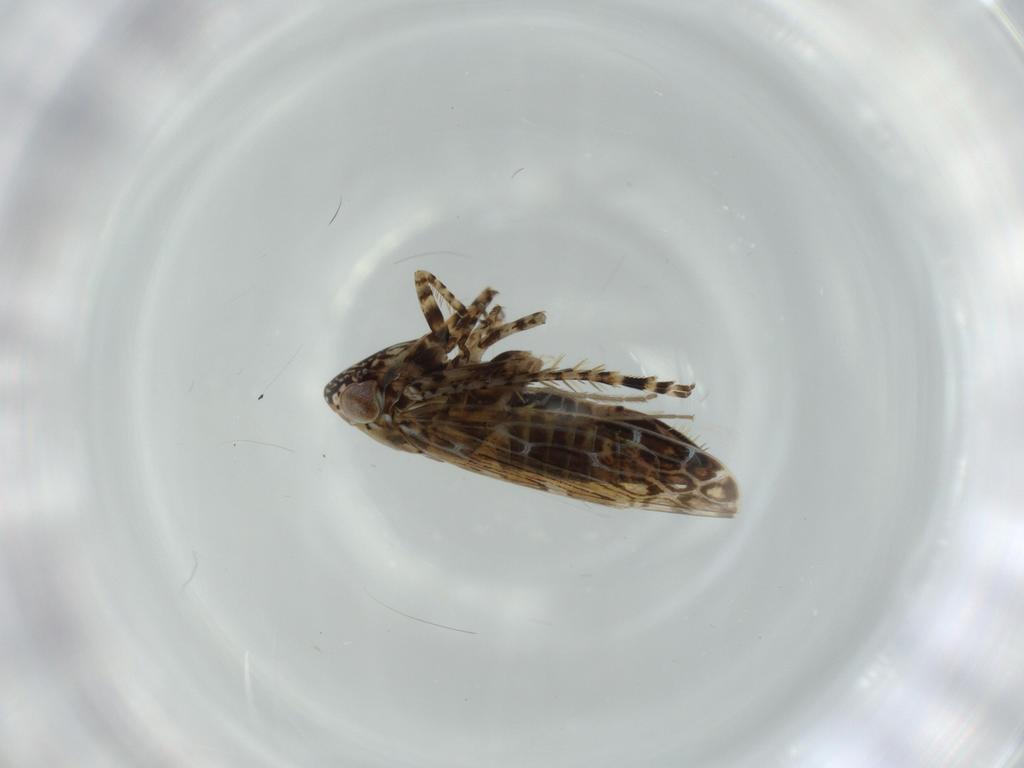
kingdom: Animalia
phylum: Arthropoda
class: Insecta
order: Hemiptera
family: Cicadellidae
